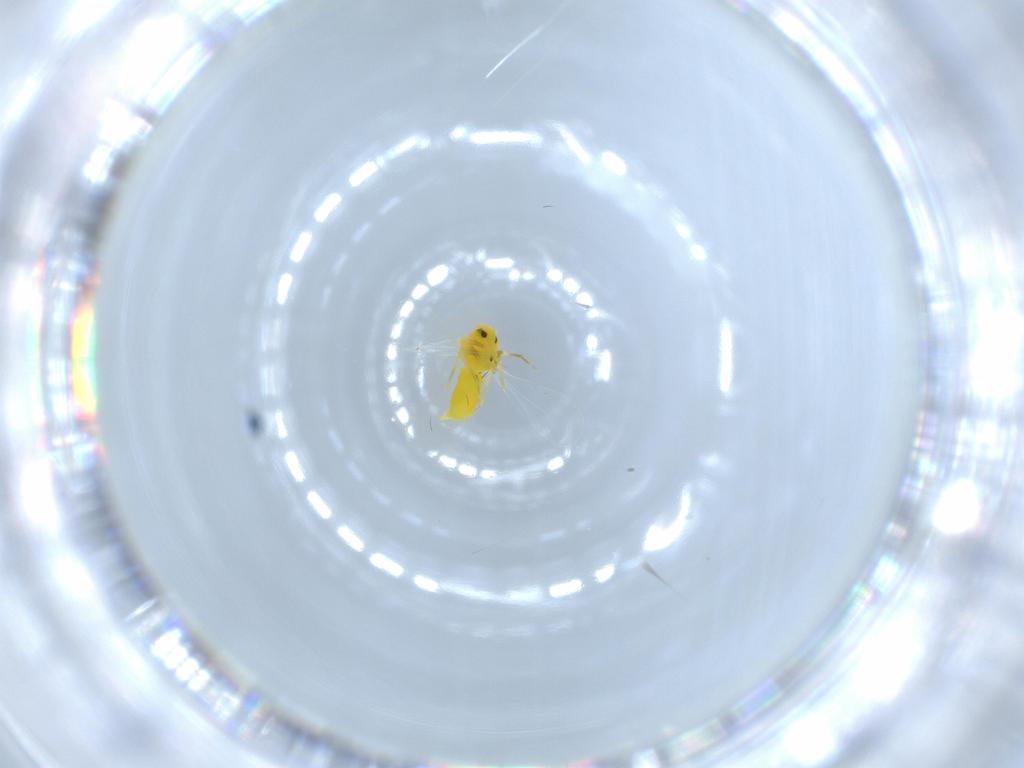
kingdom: Animalia
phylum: Arthropoda
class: Insecta
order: Hemiptera
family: Aleyrodidae
